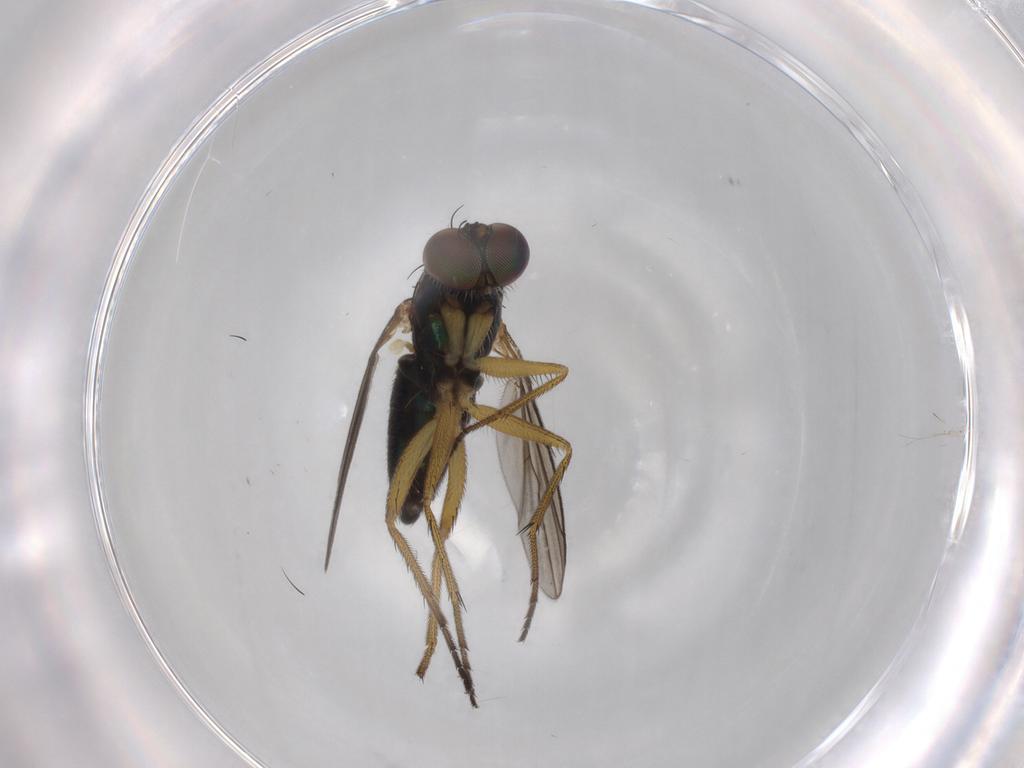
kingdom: Animalia
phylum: Arthropoda
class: Insecta
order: Diptera
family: Dolichopodidae
